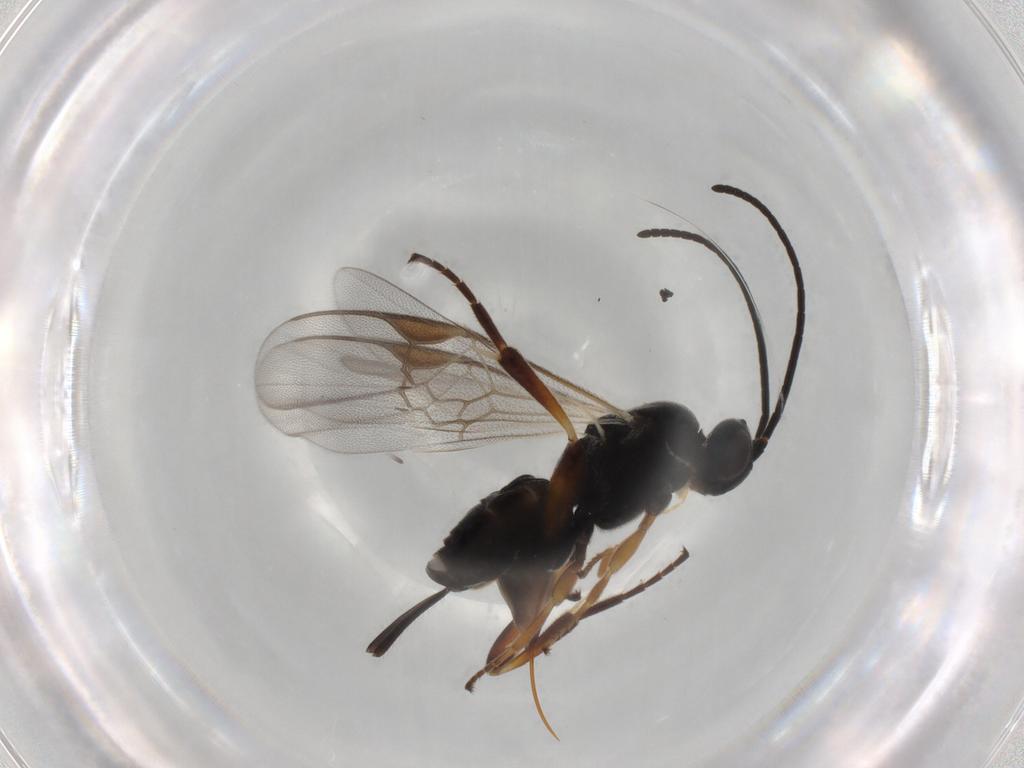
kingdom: Animalia
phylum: Arthropoda
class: Insecta
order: Hymenoptera
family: Braconidae
